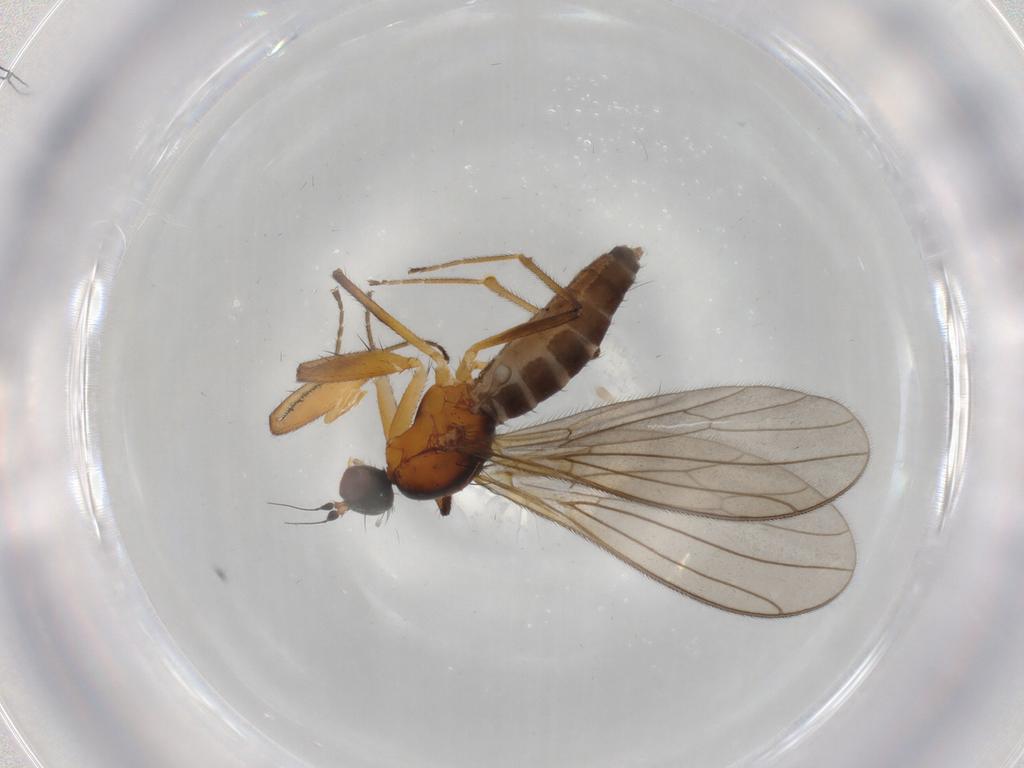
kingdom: Animalia
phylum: Arthropoda
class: Insecta
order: Diptera
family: Empididae
